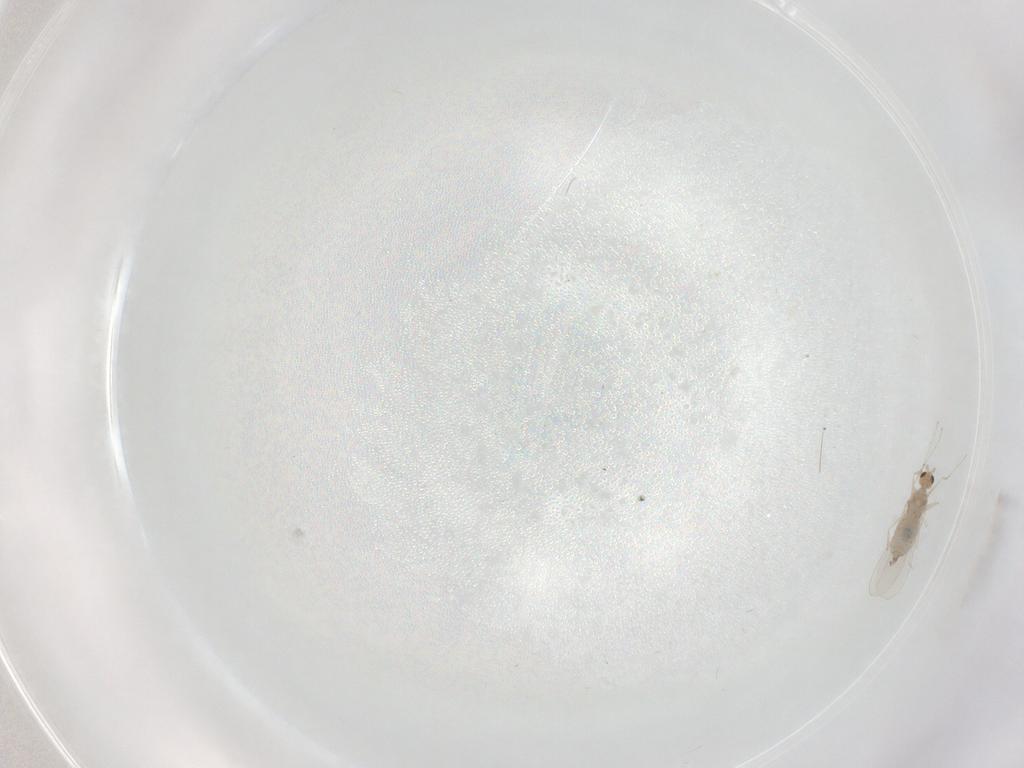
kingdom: Animalia
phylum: Arthropoda
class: Insecta
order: Diptera
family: Cecidomyiidae
